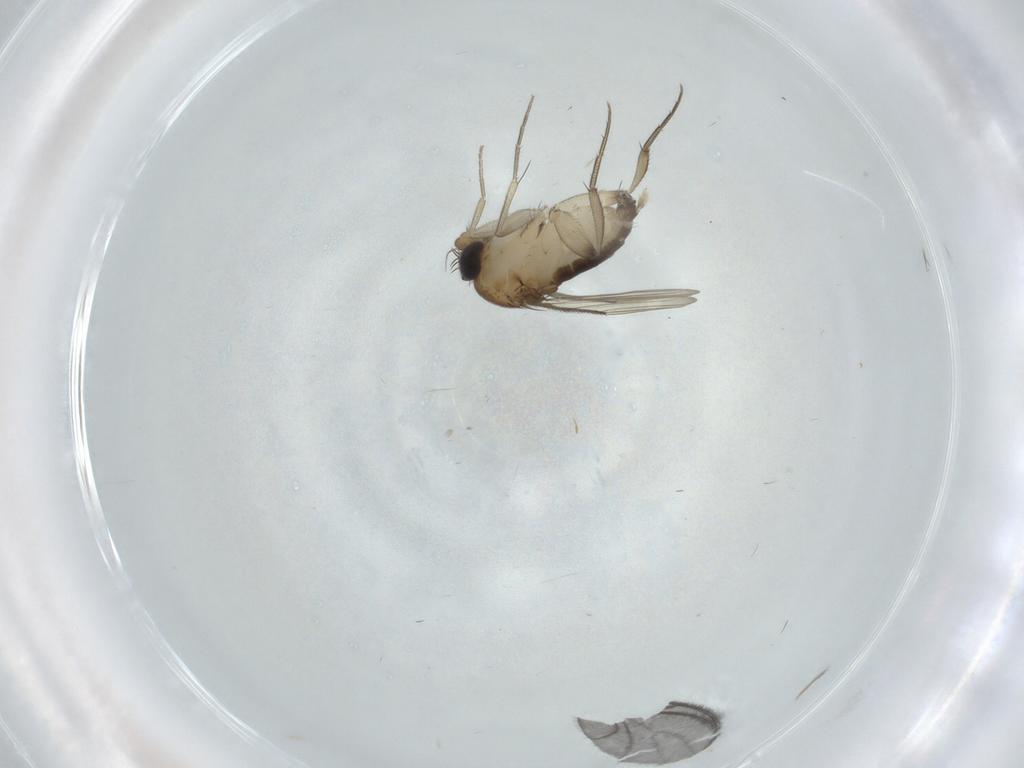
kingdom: Animalia
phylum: Arthropoda
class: Insecta
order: Diptera
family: Phoridae
